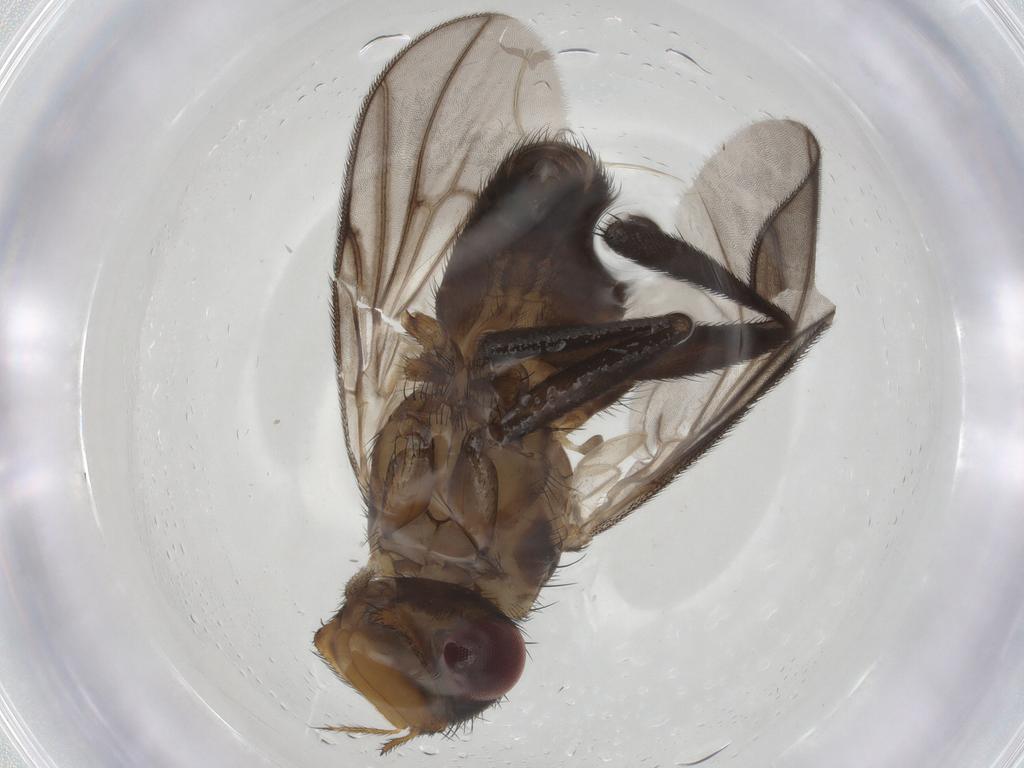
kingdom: Animalia
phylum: Arthropoda
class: Insecta
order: Diptera
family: Calliphoridae
